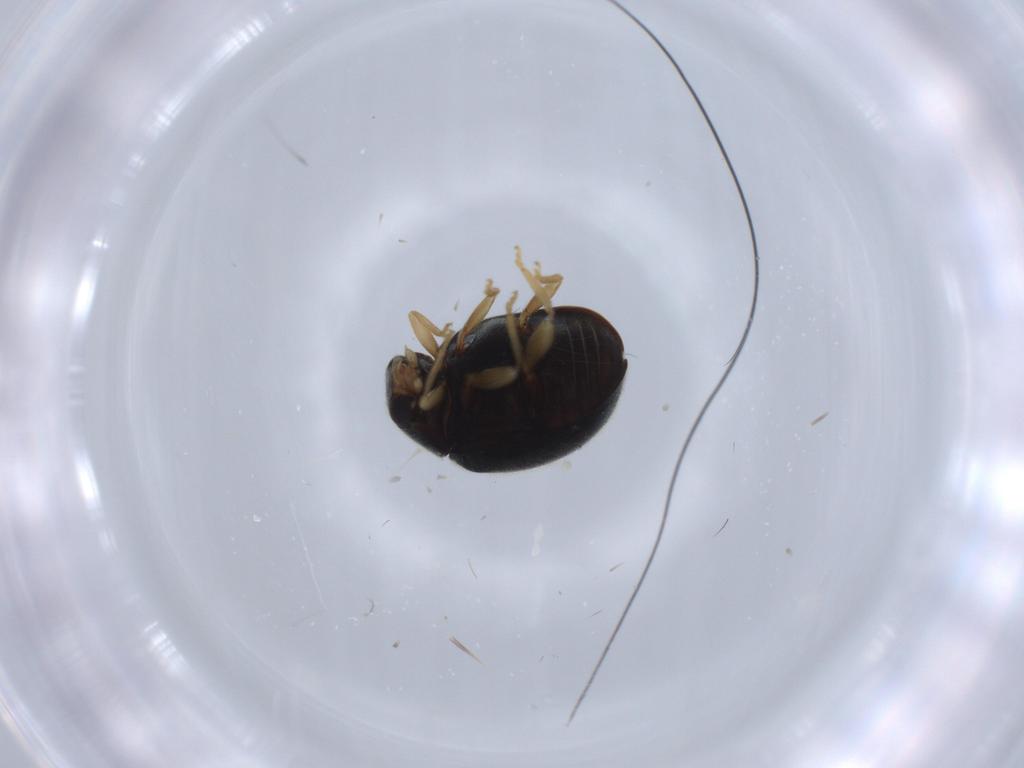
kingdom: Animalia
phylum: Arthropoda
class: Insecta
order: Coleoptera
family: Coccinellidae
